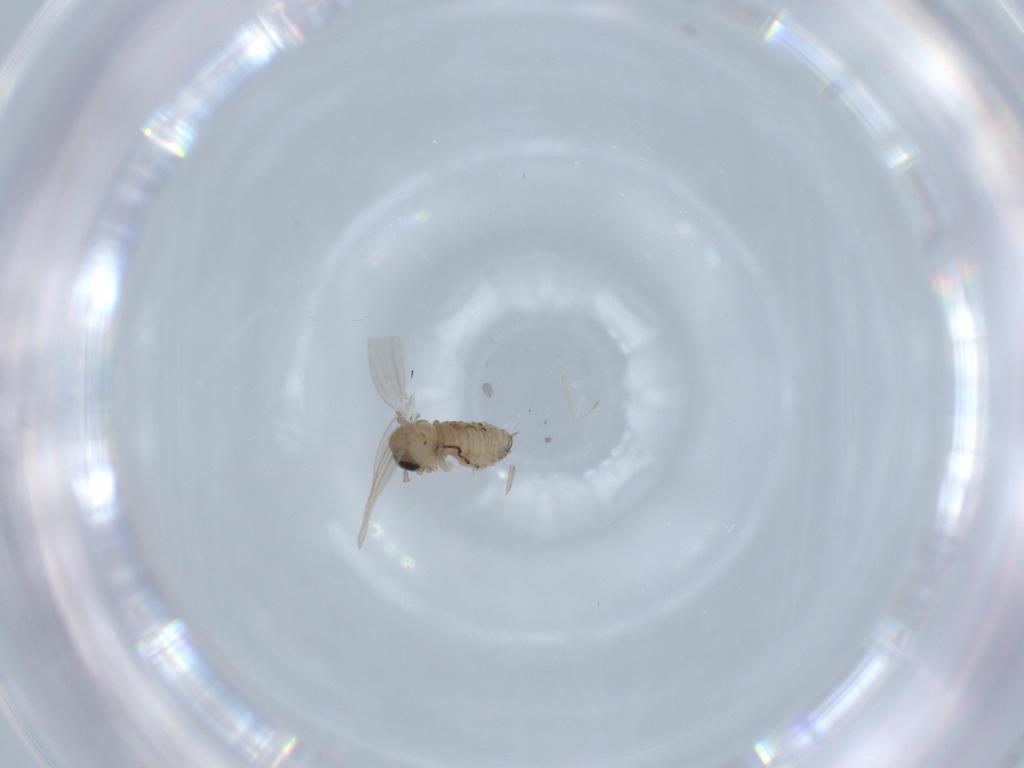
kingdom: Animalia
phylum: Arthropoda
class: Insecta
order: Diptera
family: Psychodidae
